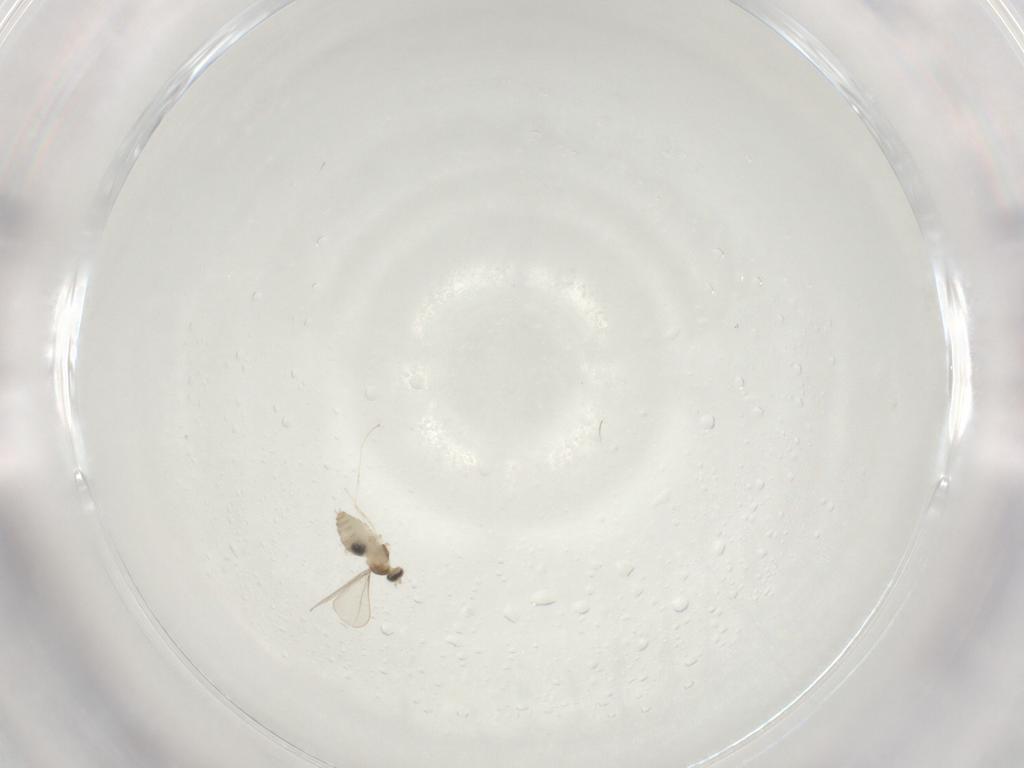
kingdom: Animalia
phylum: Arthropoda
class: Insecta
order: Diptera
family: Cecidomyiidae
